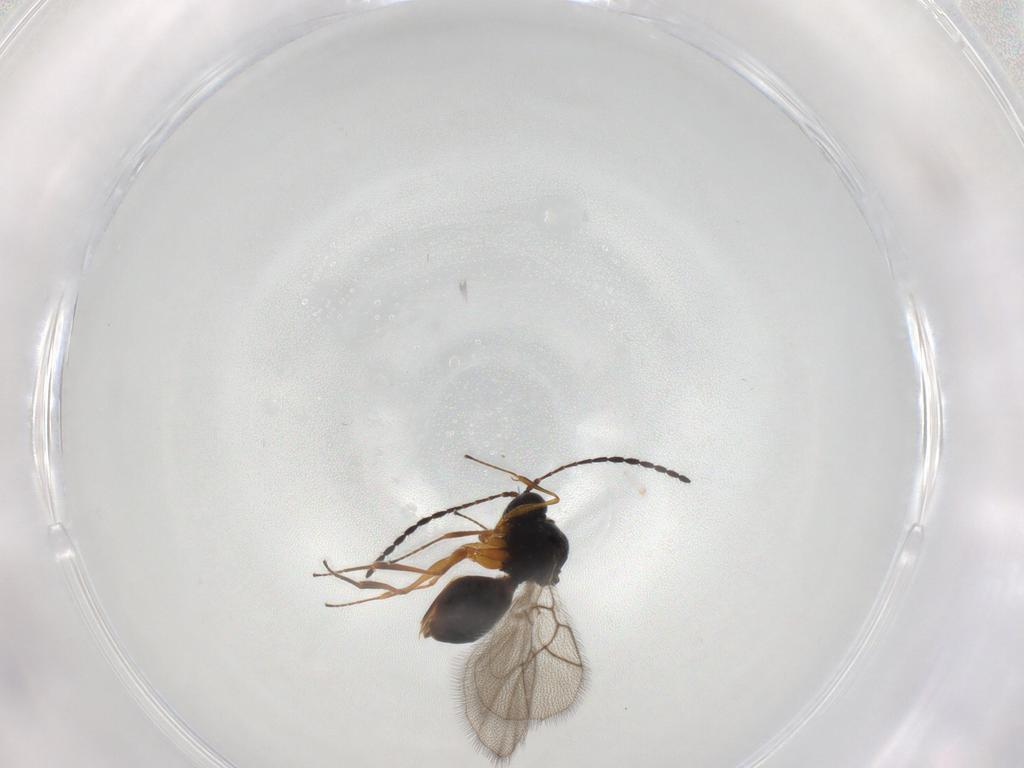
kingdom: Animalia
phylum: Arthropoda
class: Insecta
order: Hymenoptera
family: Figitidae
